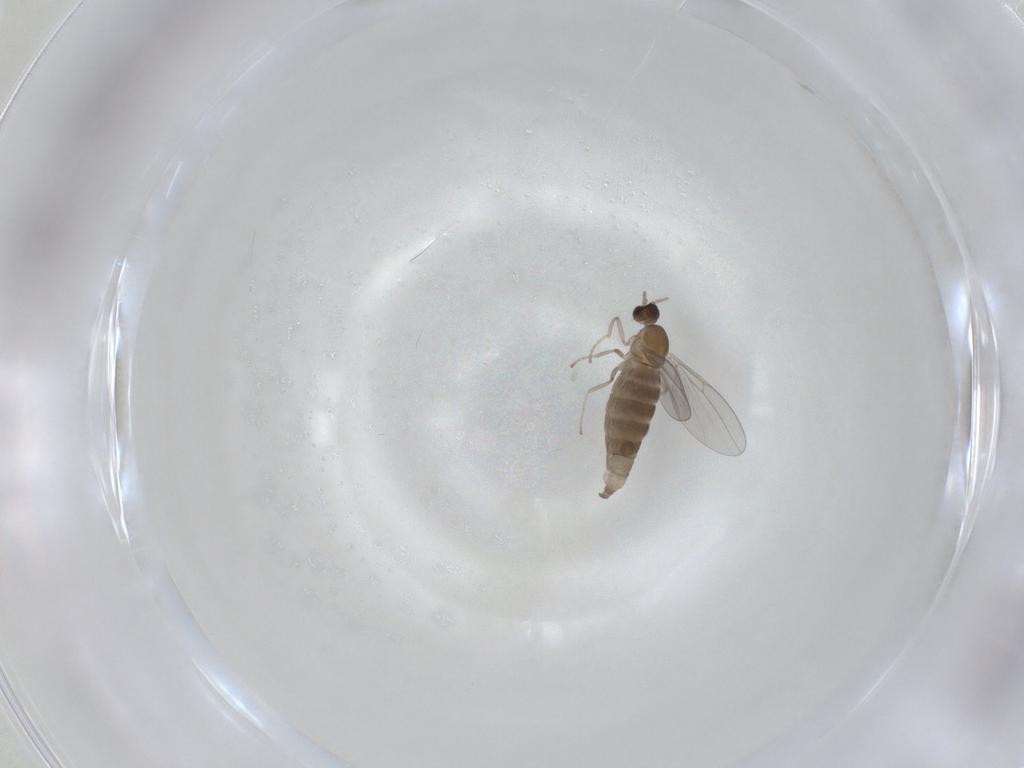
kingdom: Animalia
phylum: Arthropoda
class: Insecta
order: Diptera
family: Cecidomyiidae
